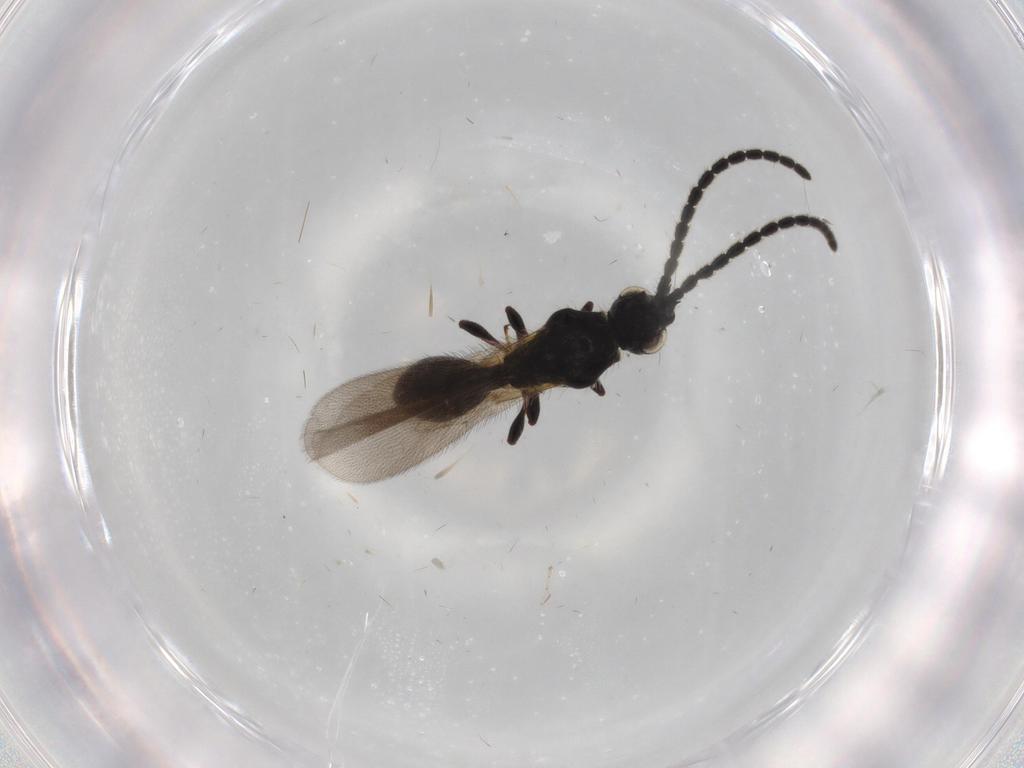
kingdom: Animalia
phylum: Arthropoda
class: Insecta
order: Hymenoptera
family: Diapriidae
